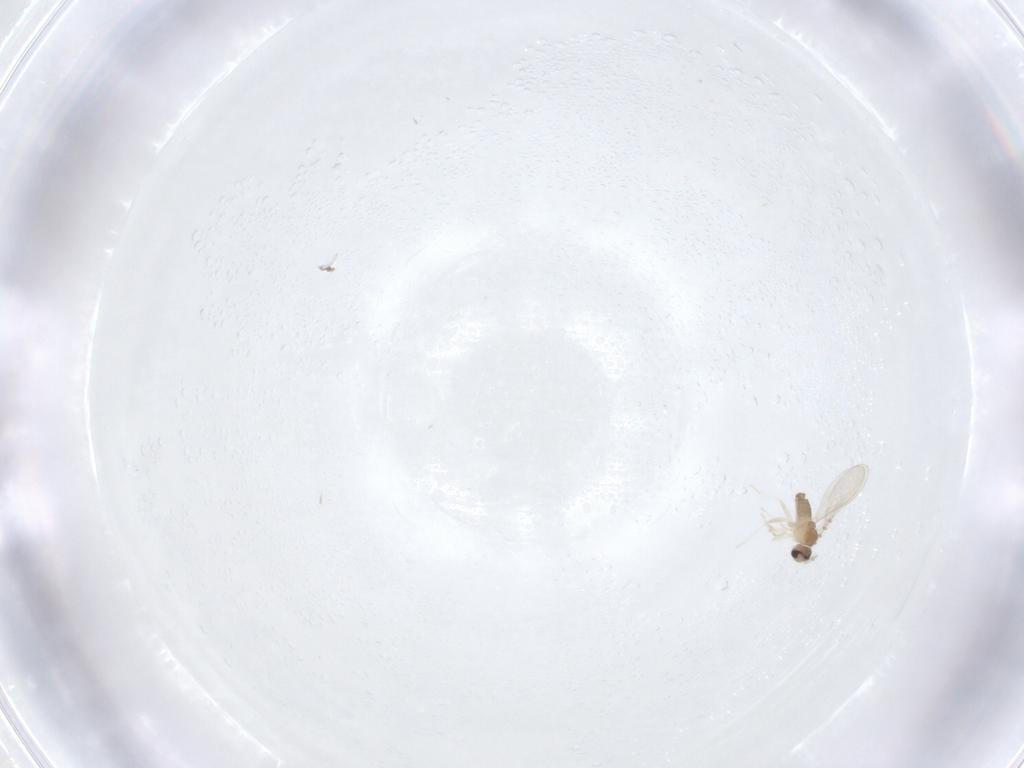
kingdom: Animalia
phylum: Arthropoda
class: Insecta
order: Diptera
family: Cecidomyiidae
